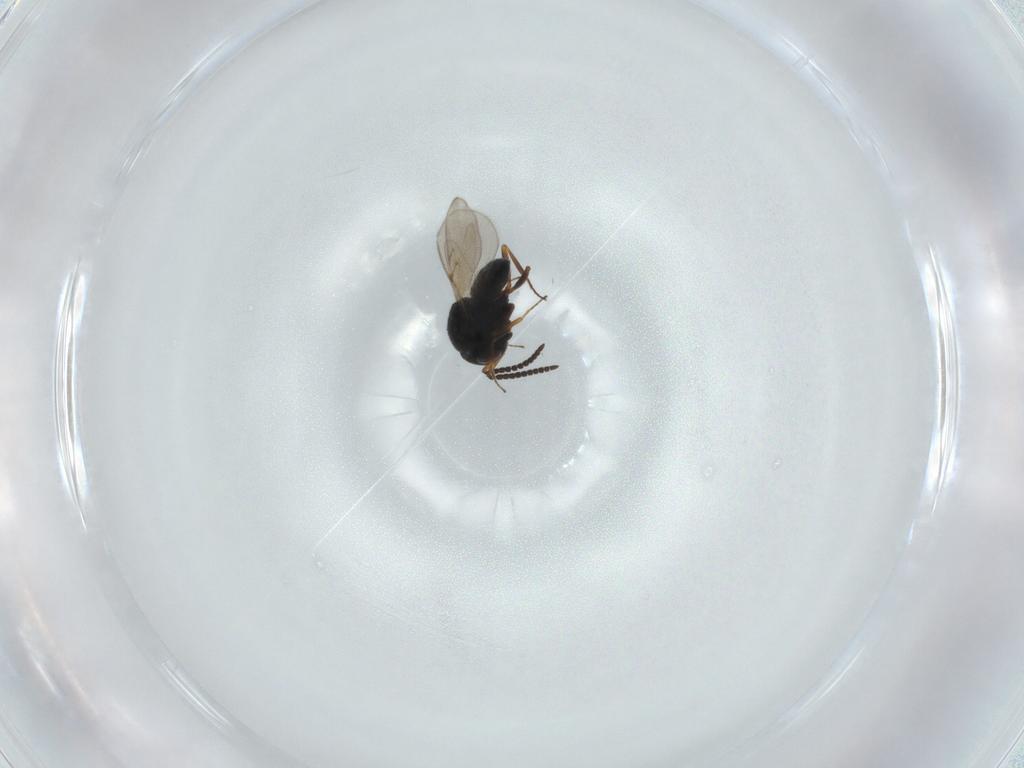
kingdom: Animalia
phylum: Arthropoda
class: Insecta
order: Hymenoptera
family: Scelionidae
